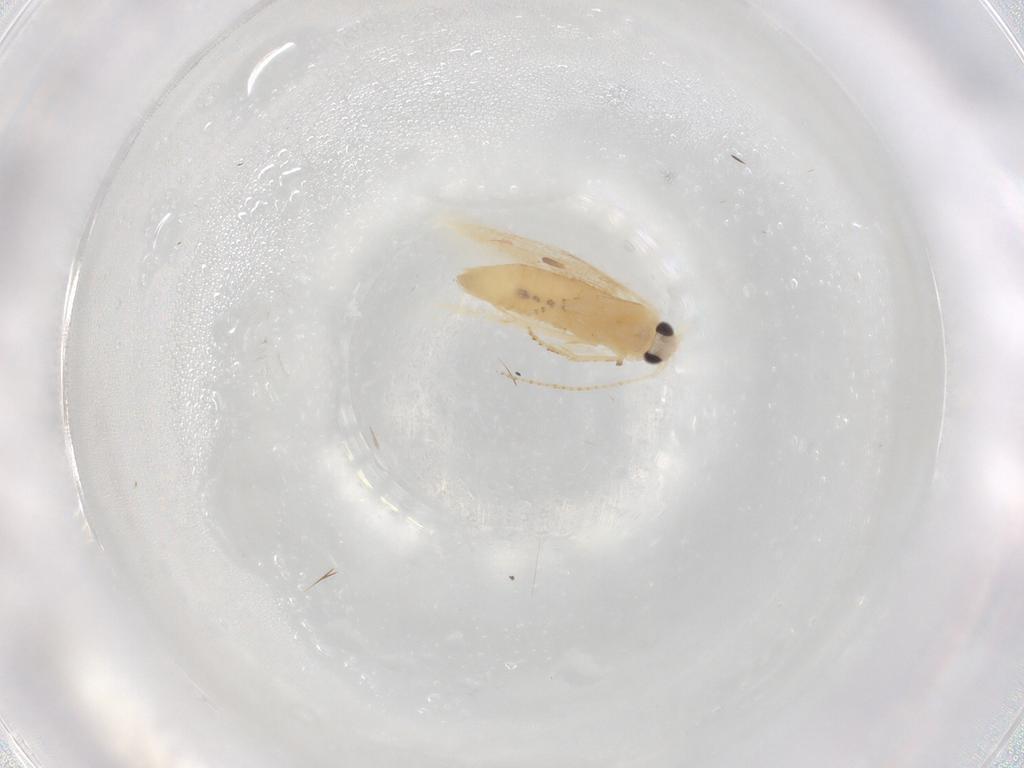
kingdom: Animalia
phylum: Arthropoda
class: Insecta
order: Lepidoptera
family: Depressariidae
